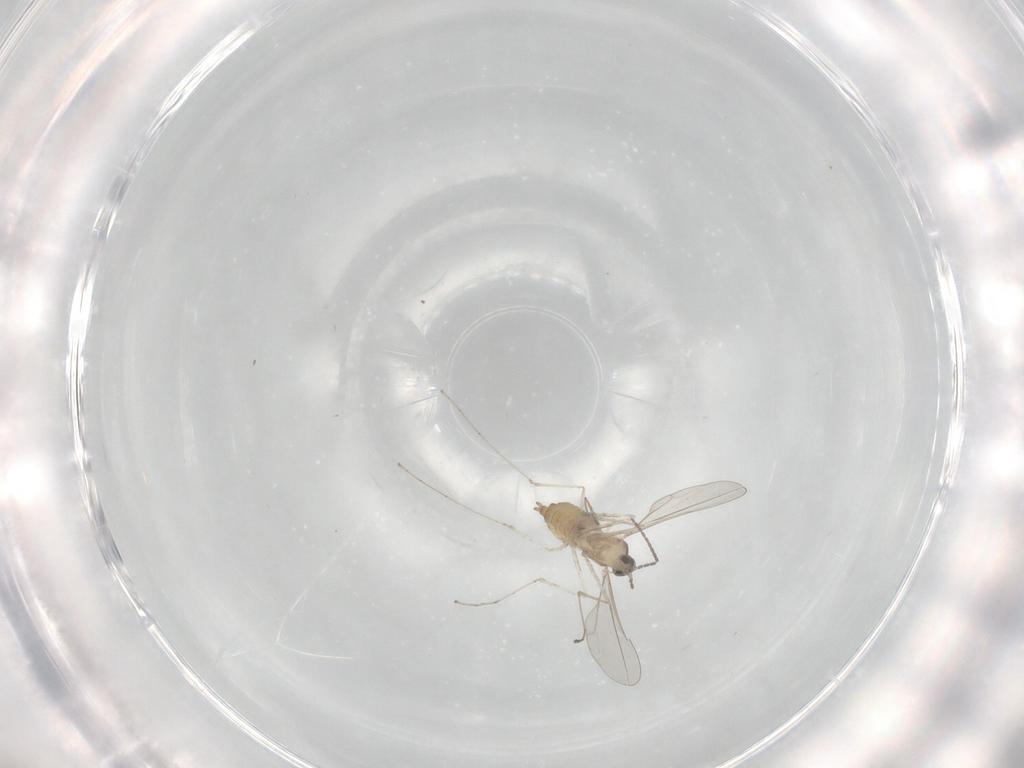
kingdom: Animalia
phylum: Arthropoda
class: Insecta
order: Diptera
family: Cecidomyiidae
